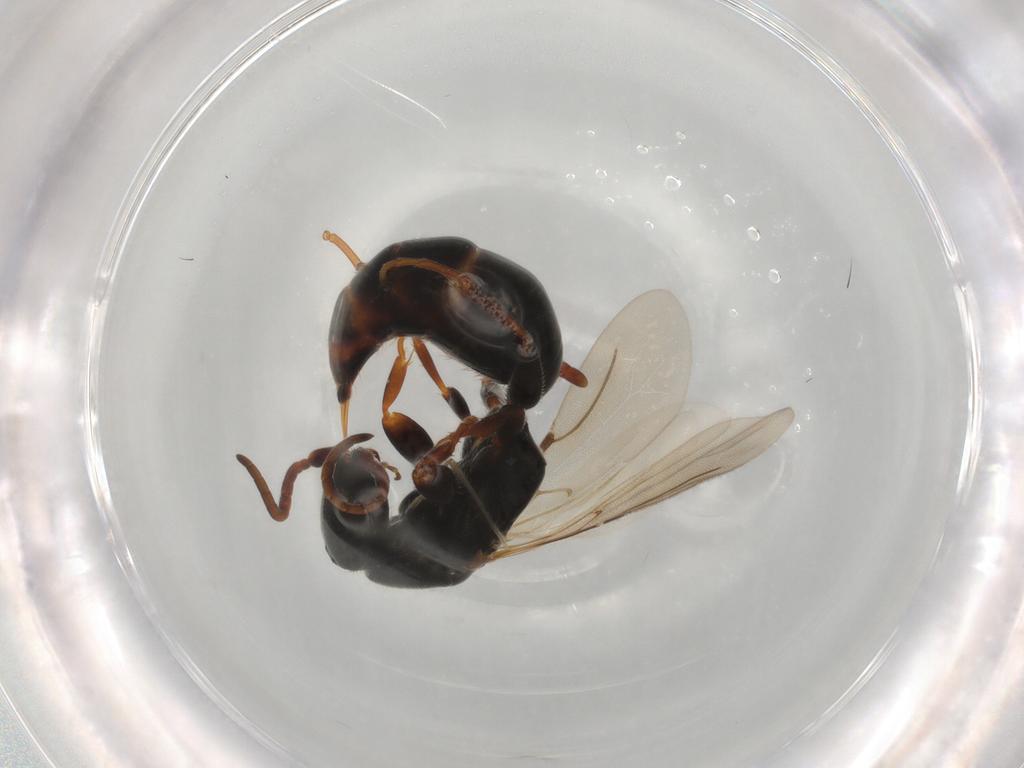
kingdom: Animalia
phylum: Arthropoda
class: Insecta
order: Hymenoptera
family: Bethylidae
